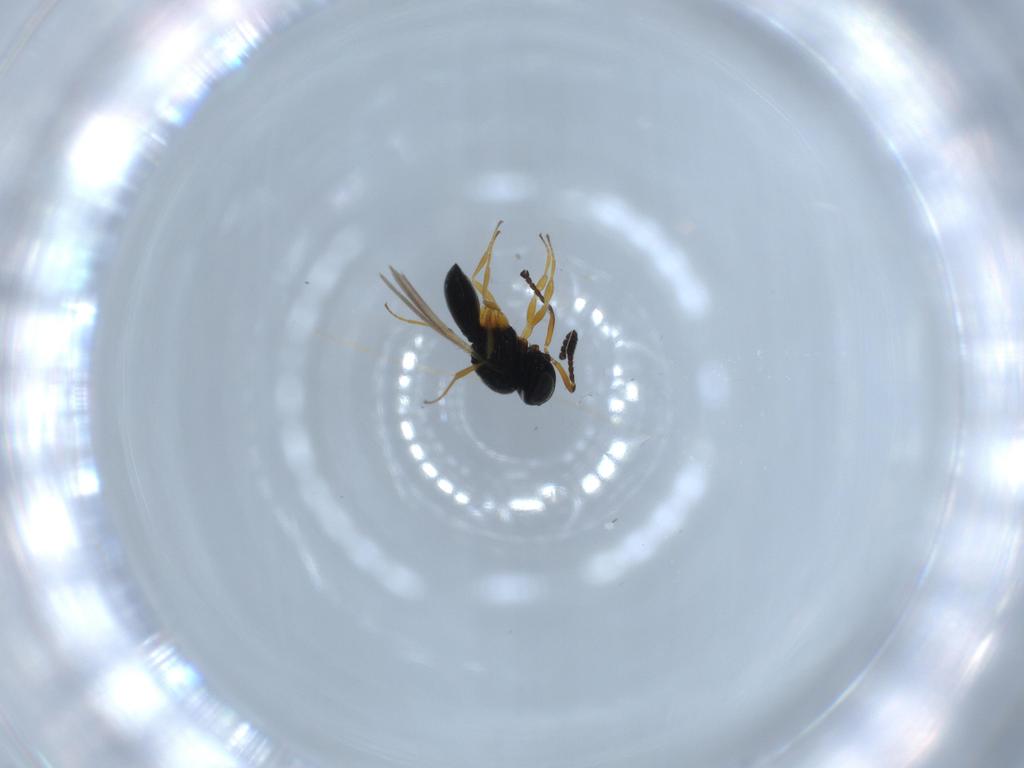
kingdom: Animalia
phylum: Arthropoda
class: Insecta
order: Hymenoptera
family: Scelionidae
